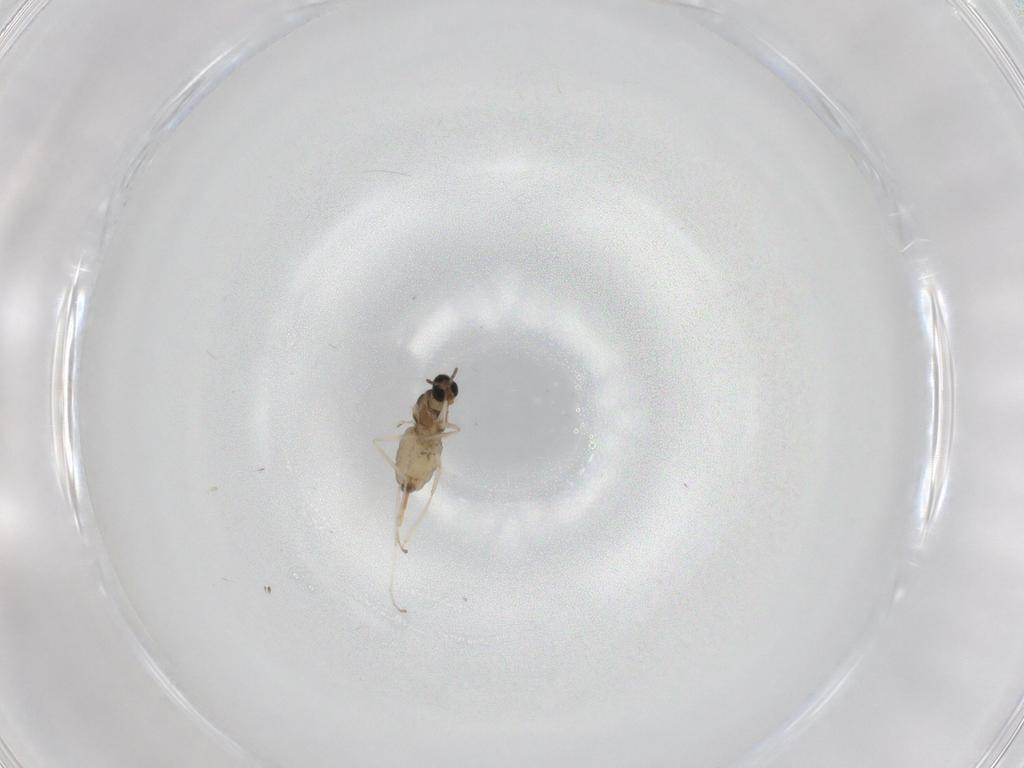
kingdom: Animalia
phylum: Arthropoda
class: Insecta
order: Diptera
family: Cecidomyiidae
